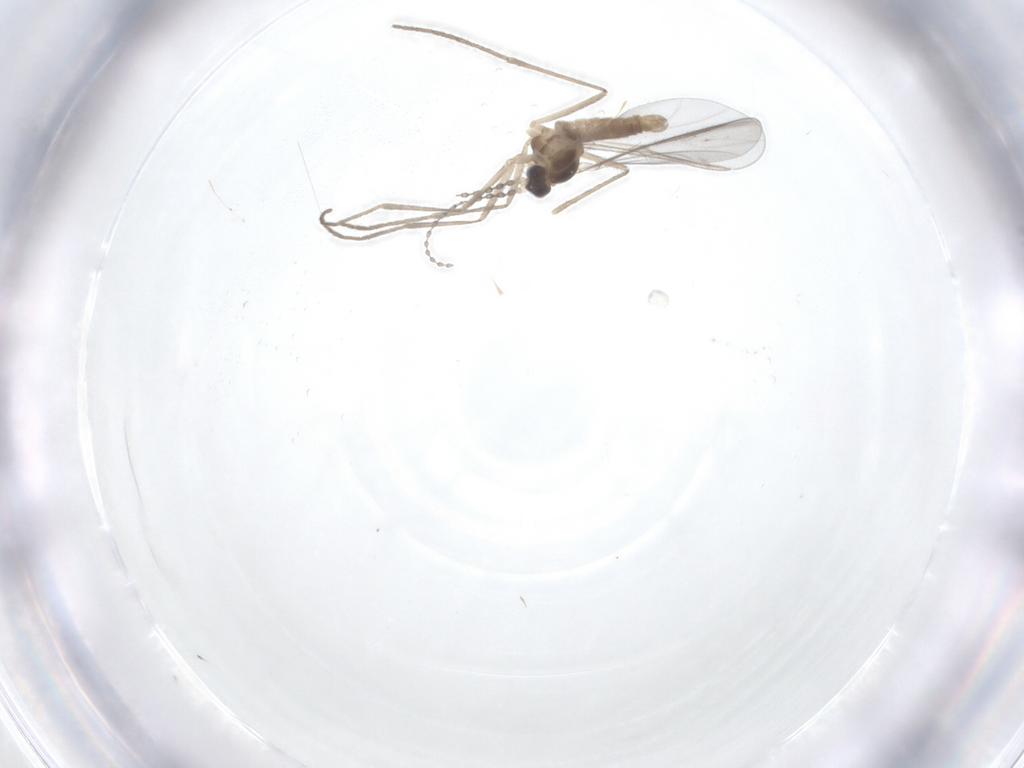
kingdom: Animalia
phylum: Arthropoda
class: Insecta
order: Diptera
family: Cecidomyiidae
